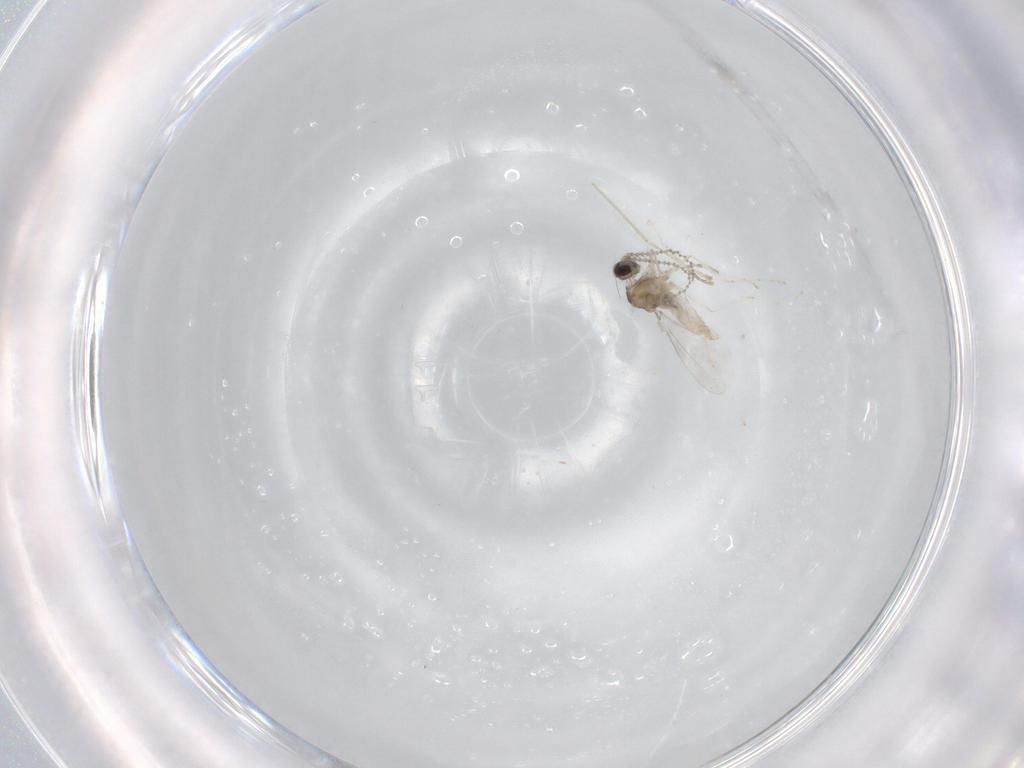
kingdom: Animalia
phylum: Arthropoda
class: Insecta
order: Diptera
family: Cecidomyiidae
